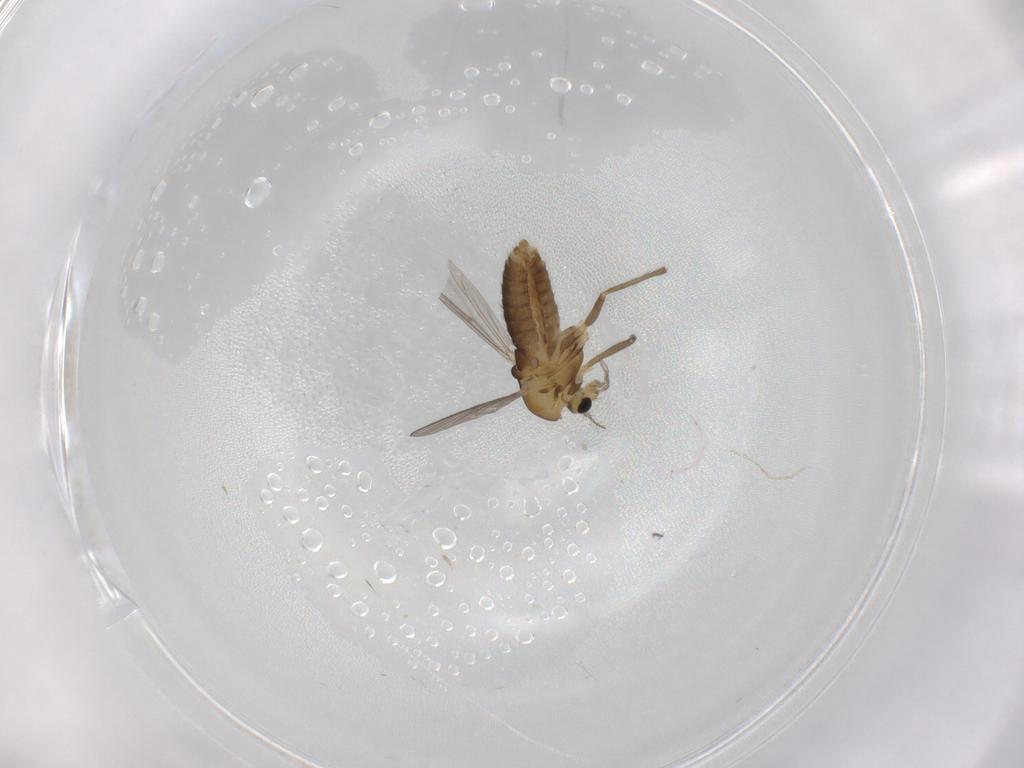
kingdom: Animalia
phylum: Arthropoda
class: Insecta
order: Diptera
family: Chironomidae
